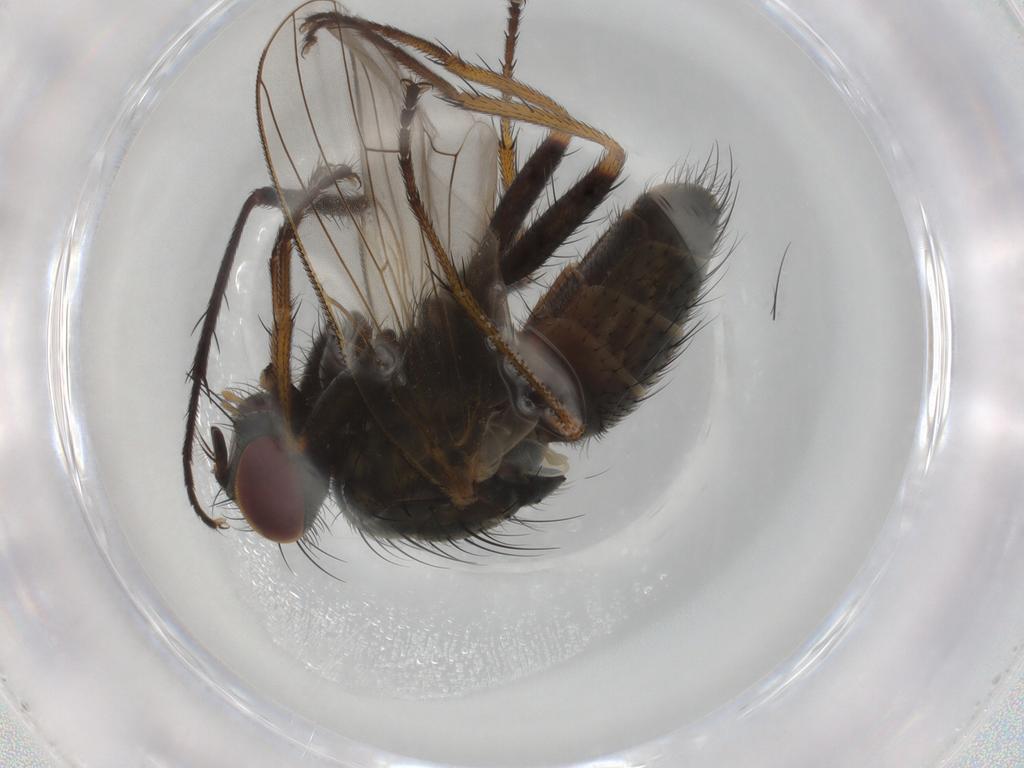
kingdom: Animalia
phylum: Arthropoda
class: Insecta
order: Diptera
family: Muscidae
